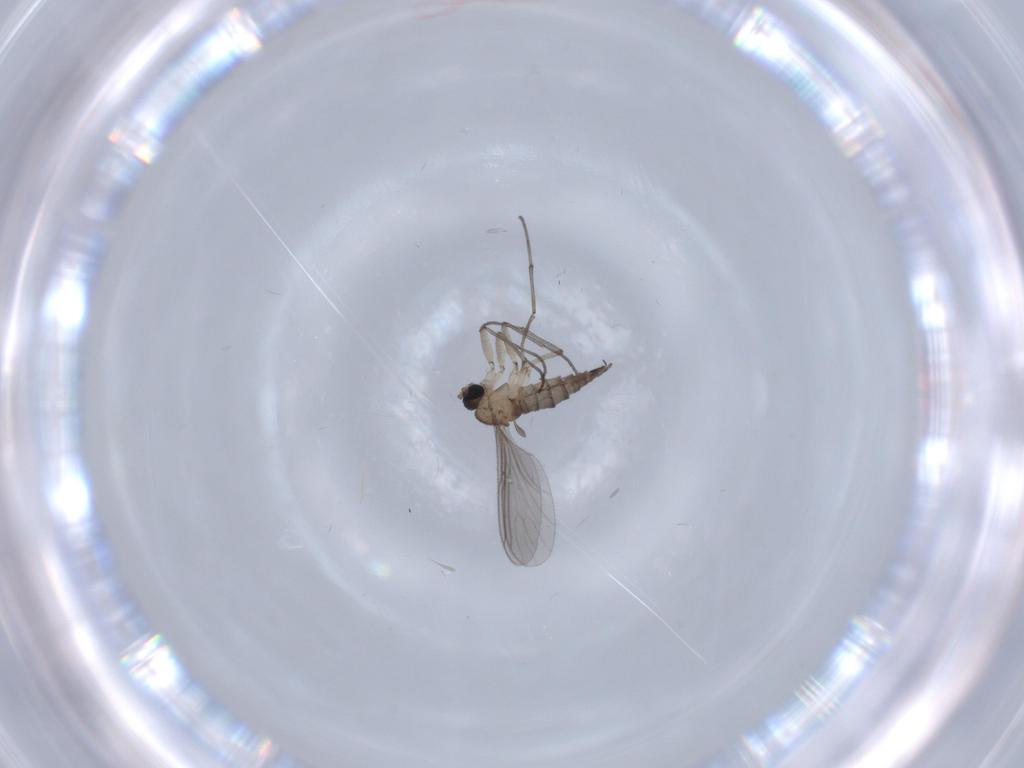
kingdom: Animalia
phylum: Arthropoda
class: Insecta
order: Diptera
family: Sciaridae
